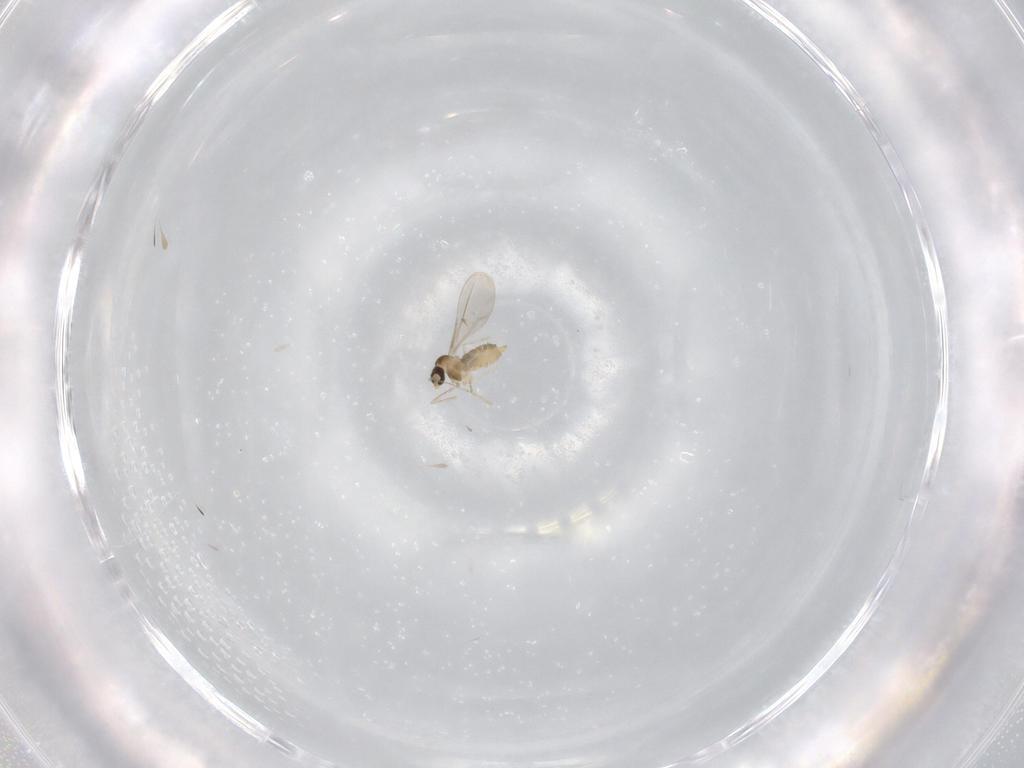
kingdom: Animalia
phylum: Arthropoda
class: Insecta
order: Diptera
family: Cecidomyiidae
